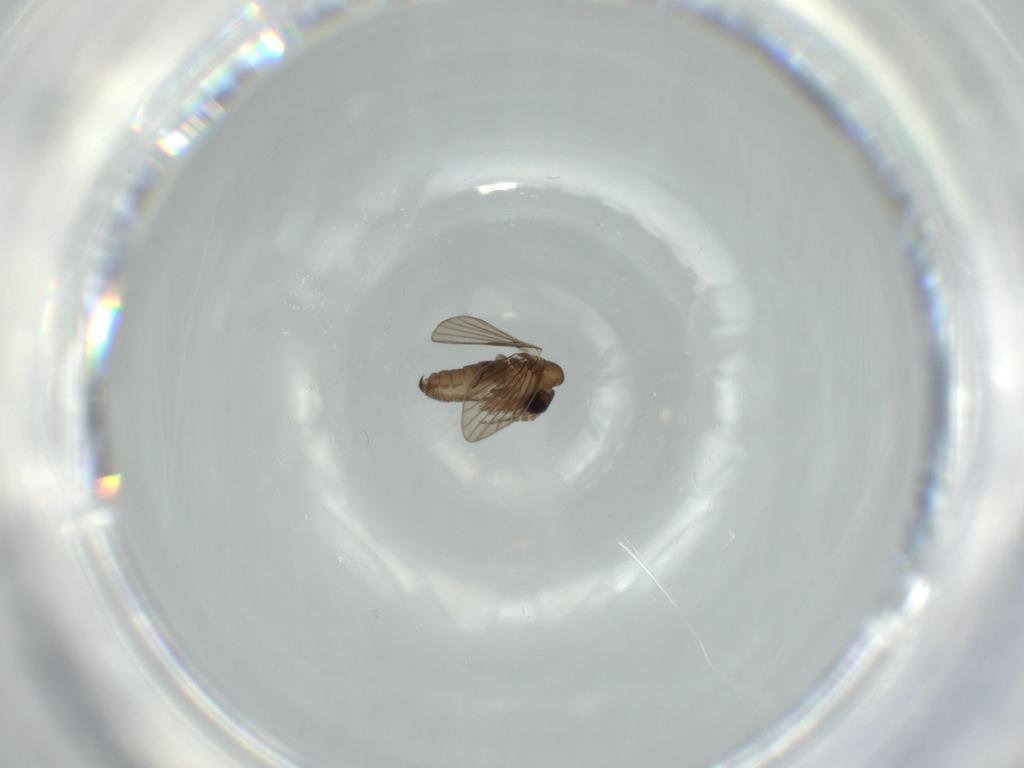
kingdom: Animalia
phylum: Arthropoda
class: Insecta
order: Diptera
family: Psychodidae
